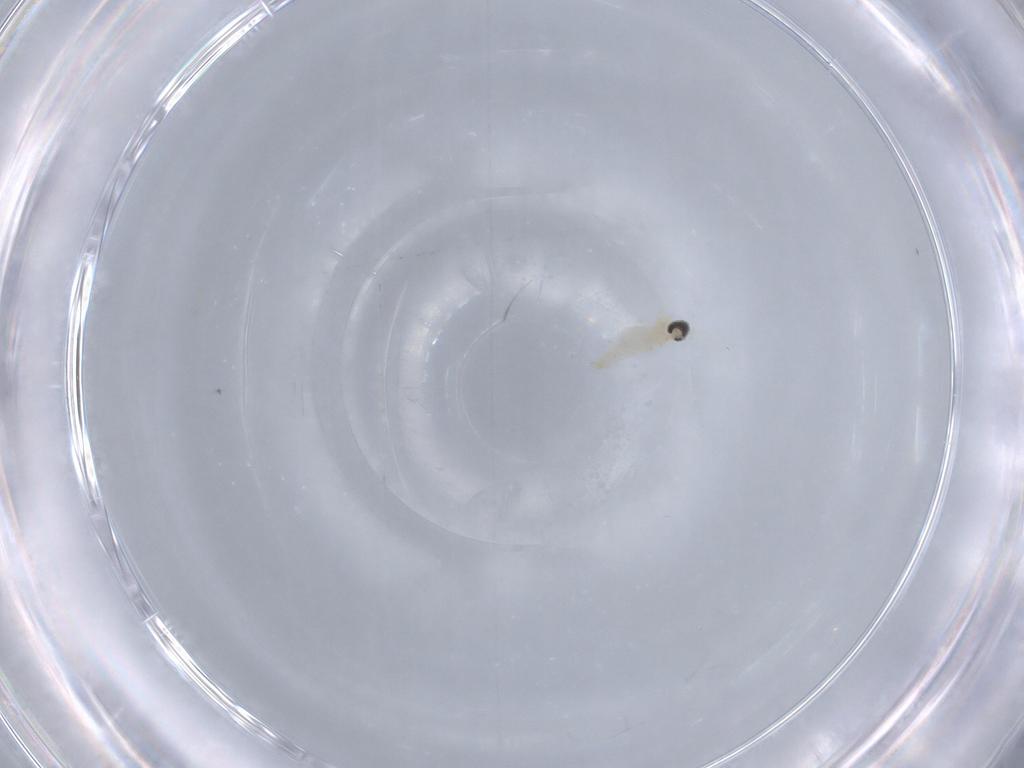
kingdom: Animalia
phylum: Arthropoda
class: Insecta
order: Diptera
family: Cecidomyiidae
